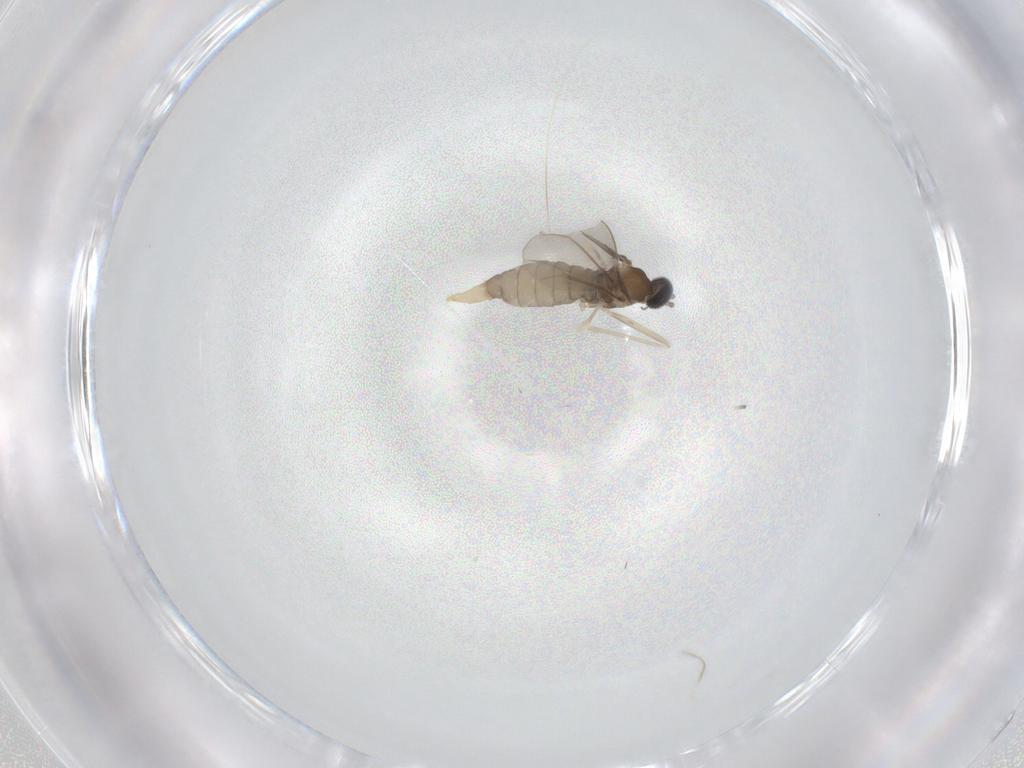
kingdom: Animalia
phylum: Arthropoda
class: Insecta
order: Diptera
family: Cecidomyiidae
